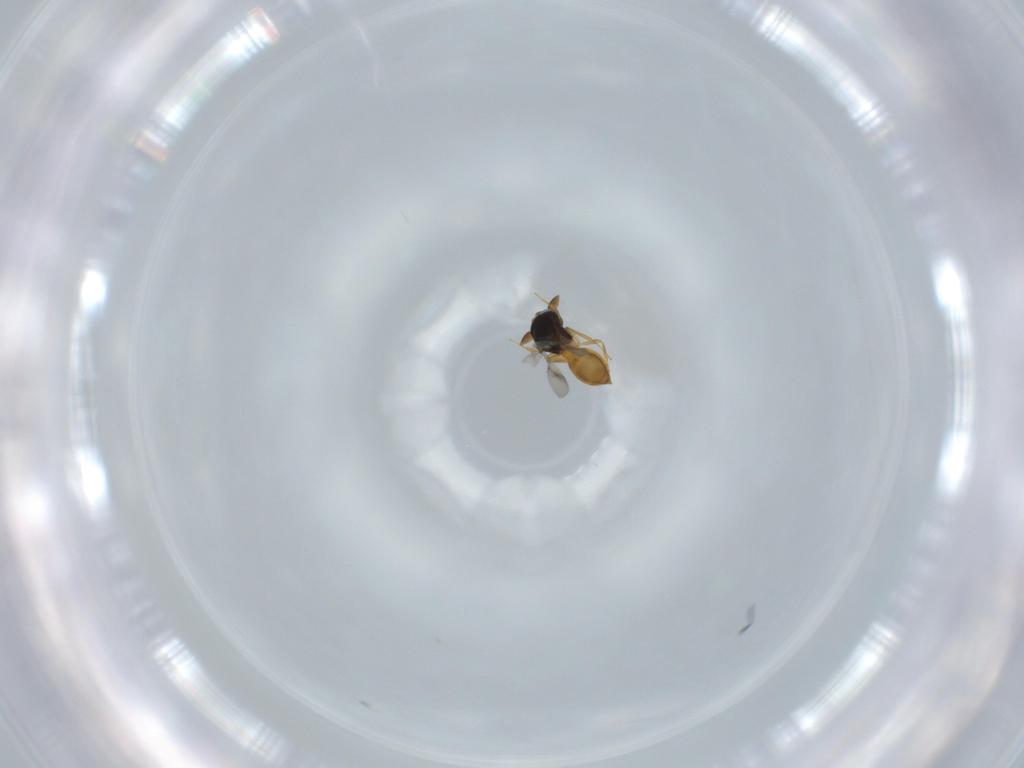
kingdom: Animalia
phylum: Arthropoda
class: Insecta
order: Hymenoptera
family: Scelionidae
